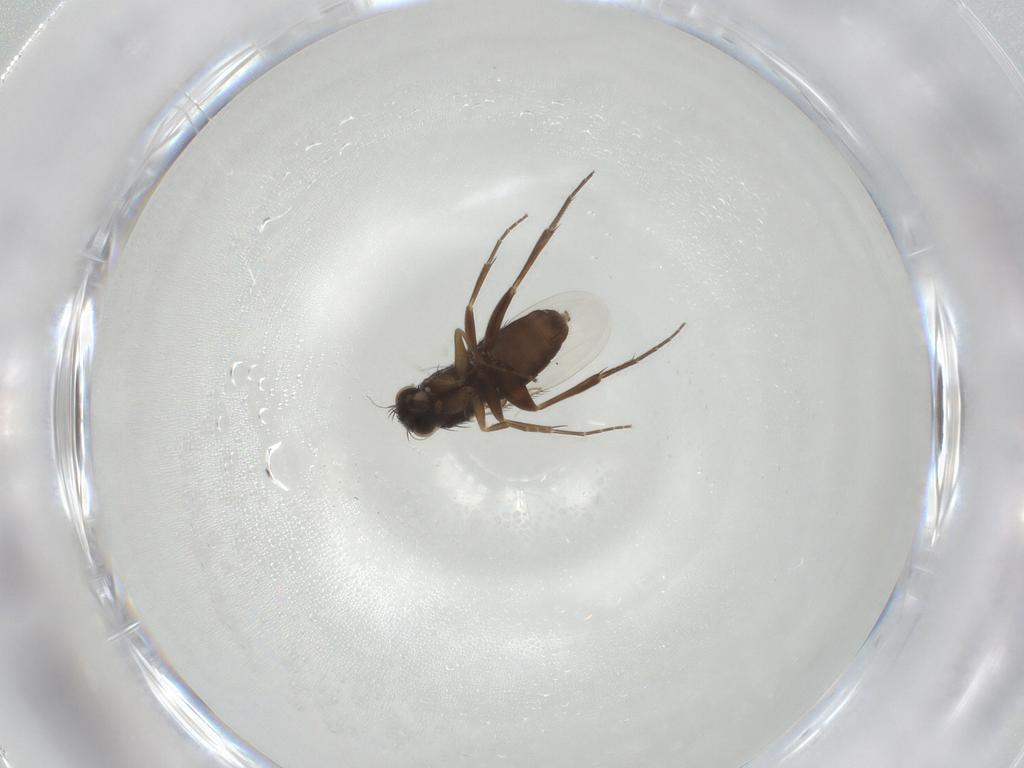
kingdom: Animalia
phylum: Arthropoda
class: Insecta
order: Diptera
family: Phoridae
